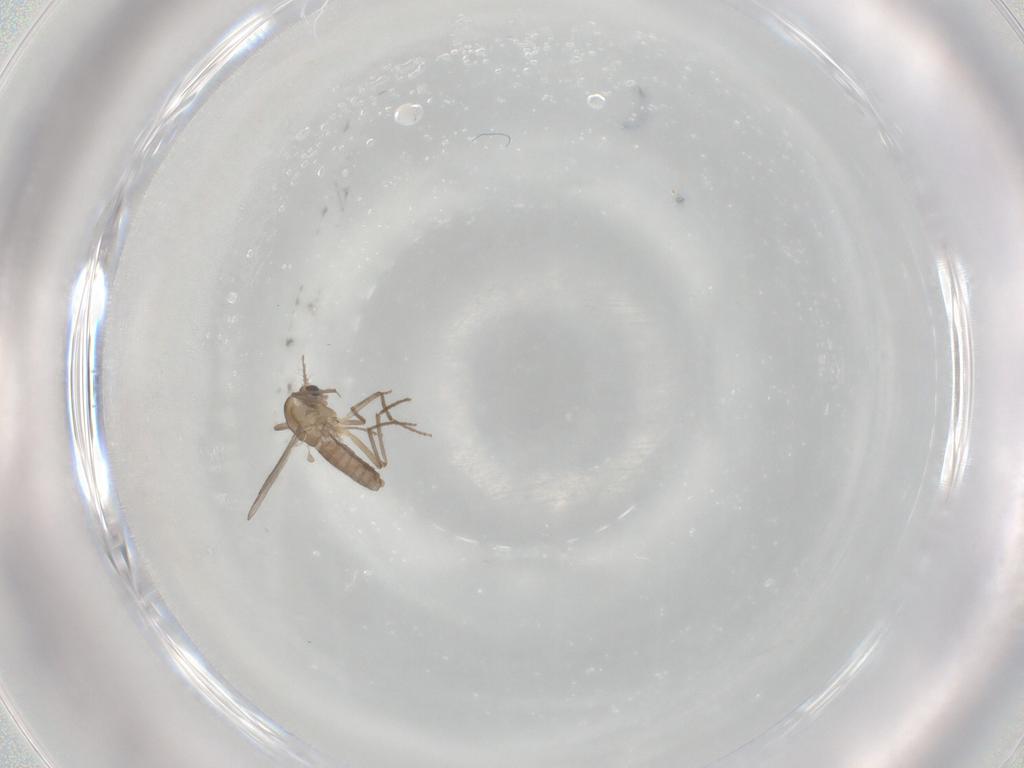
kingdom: Animalia
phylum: Arthropoda
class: Insecta
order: Diptera
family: Chironomidae
